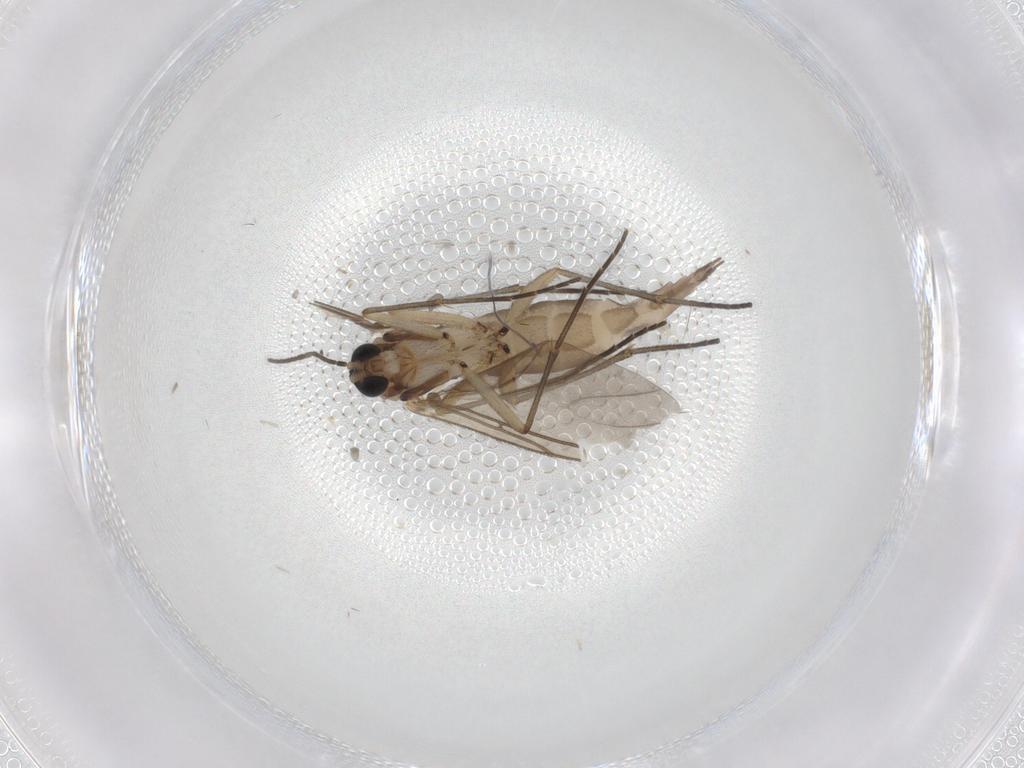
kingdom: Animalia
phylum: Arthropoda
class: Insecta
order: Diptera
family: Sciaridae
